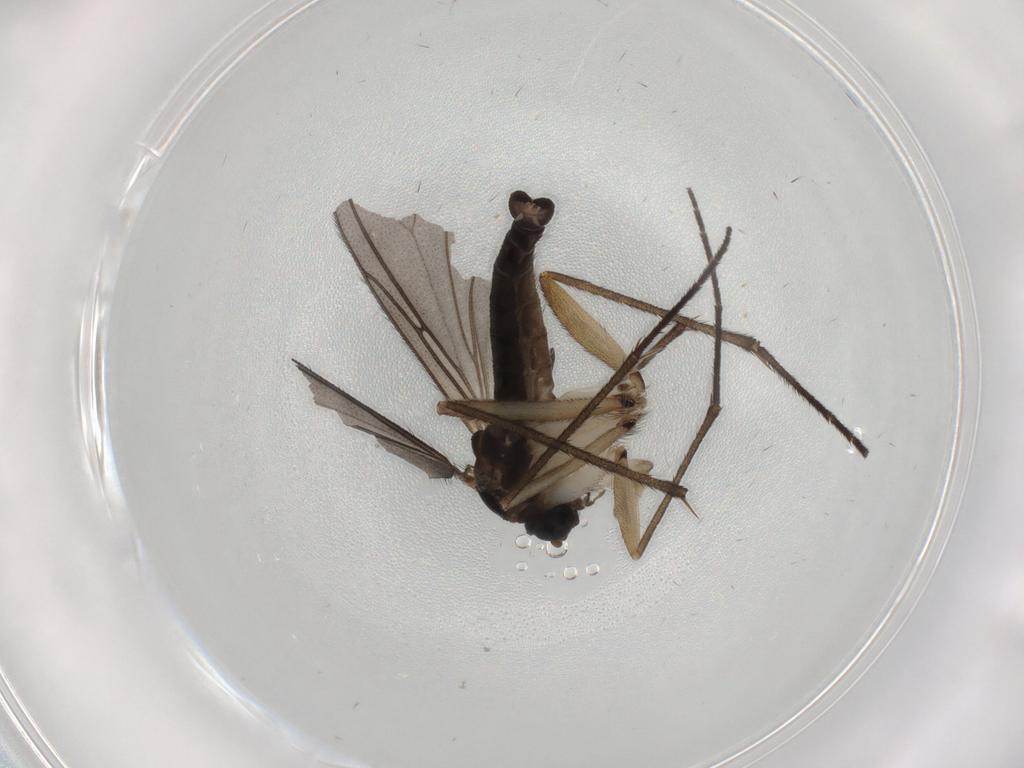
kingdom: Animalia
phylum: Arthropoda
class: Insecta
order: Diptera
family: Sciaridae
